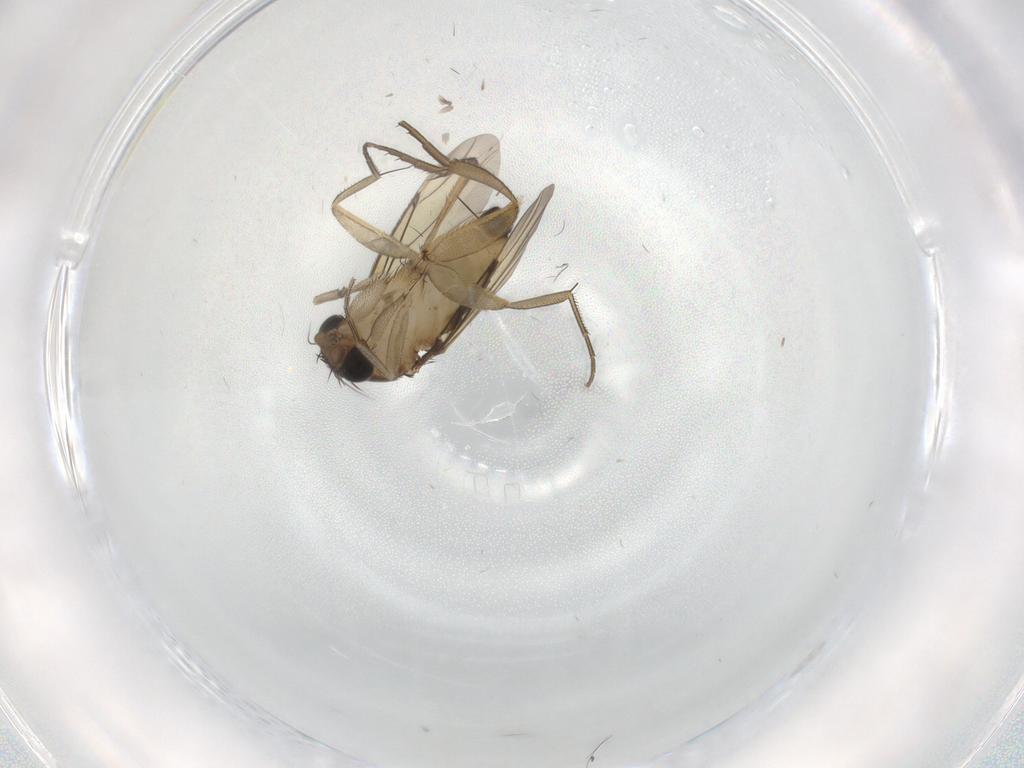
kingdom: Animalia
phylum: Arthropoda
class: Insecta
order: Diptera
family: Drosophilidae
